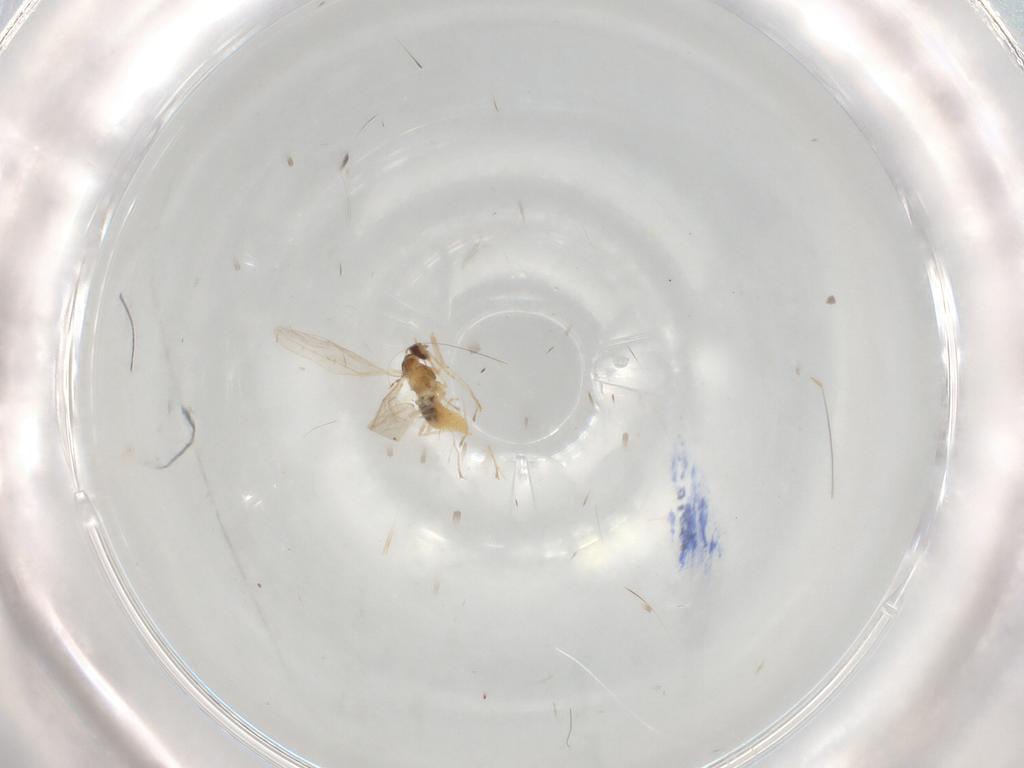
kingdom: Animalia
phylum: Arthropoda
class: Insecta
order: Diptera
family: Cecidomyiidae
